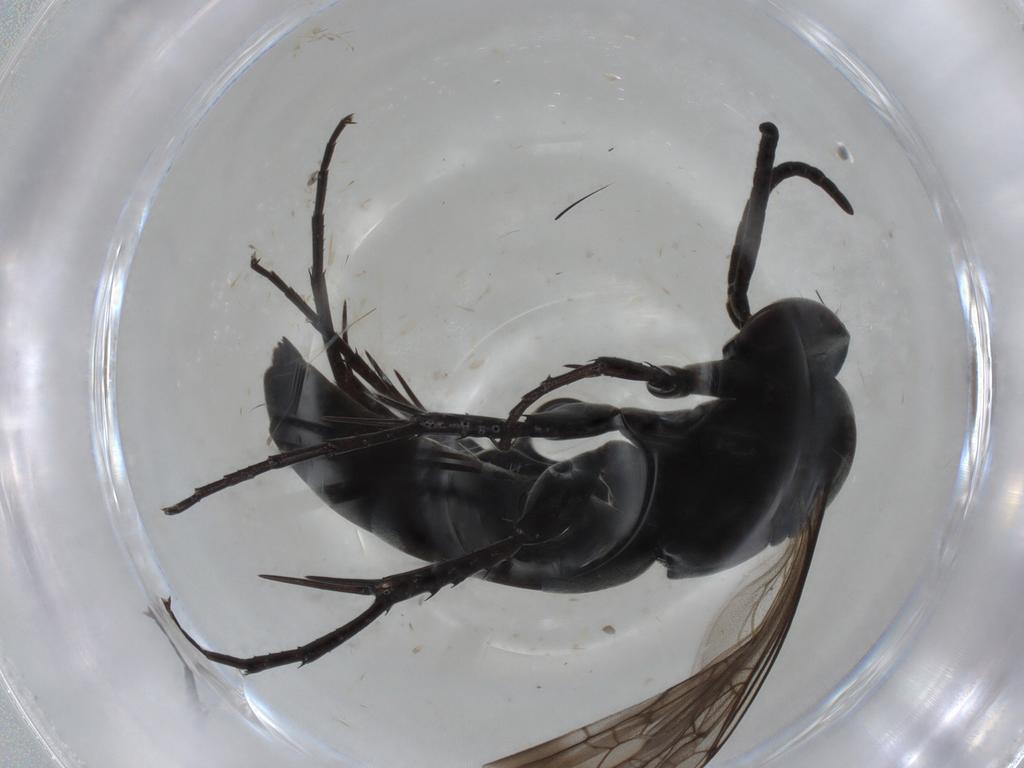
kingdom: Animalia
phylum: Arthropoda
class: Insecta
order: Hymenoptera
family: Pompilidae
